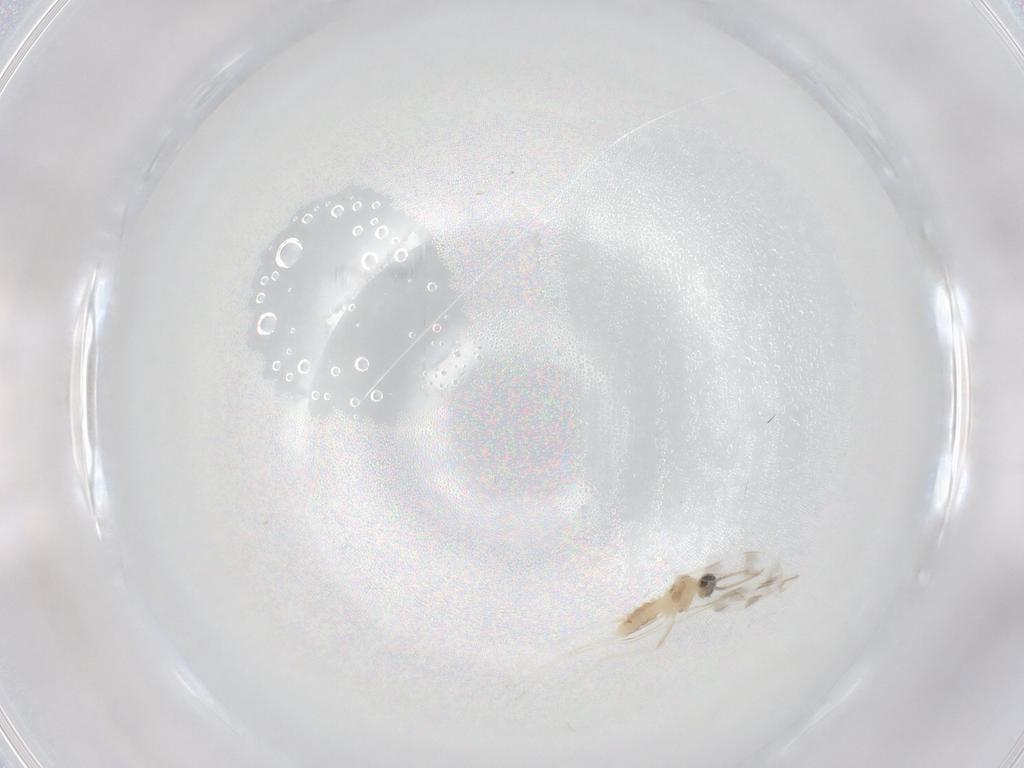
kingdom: Animalia
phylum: Arthropoda
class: Insecta
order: Diptera
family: Cecidomyiidae
